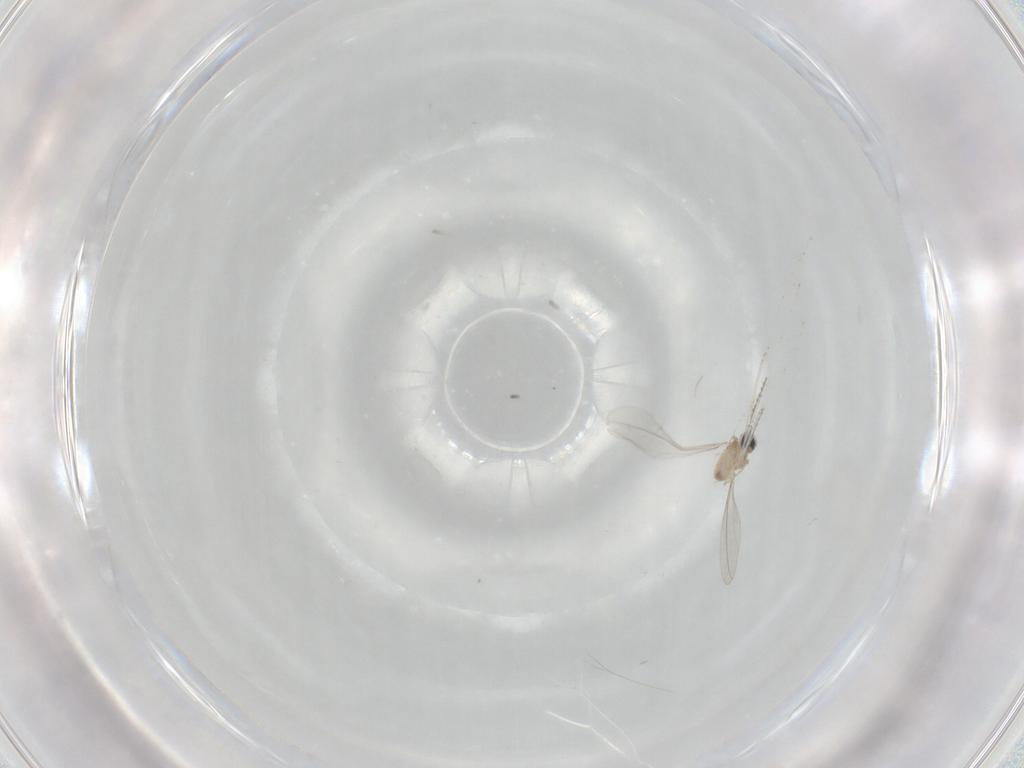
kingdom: Animalia
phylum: Arthropoda
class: Insecta
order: Diptera
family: Cecidomyiidae
